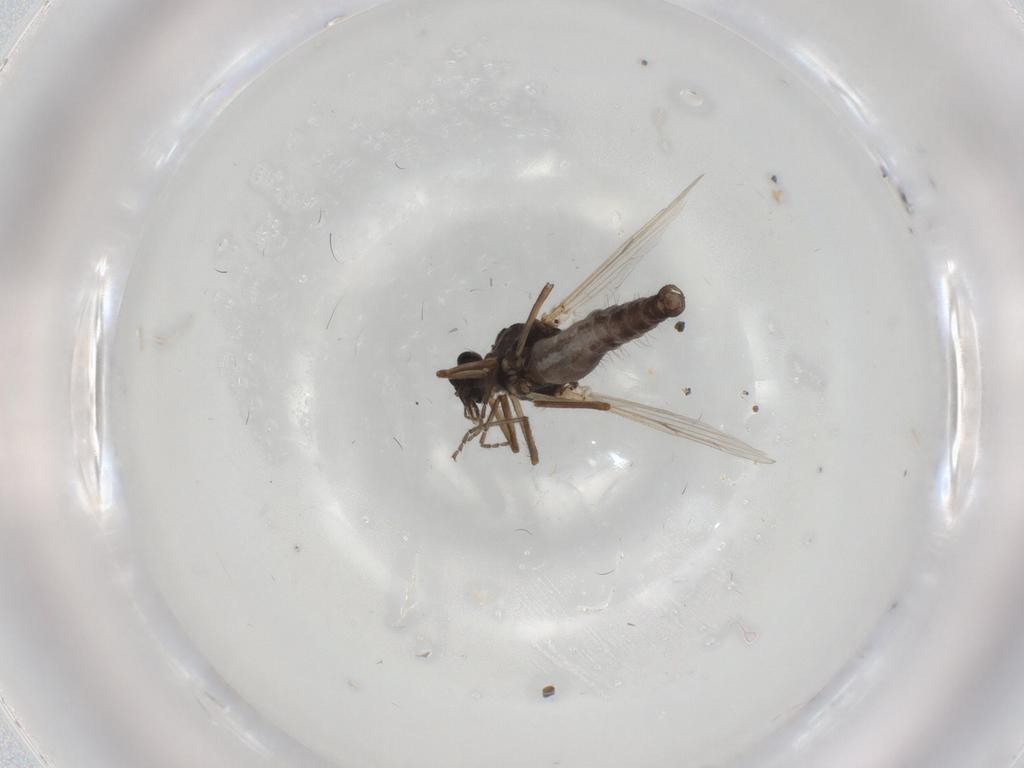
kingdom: Animalia
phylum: Arthropoda
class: Insecta
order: Diptera
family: Ceratopogonidae
